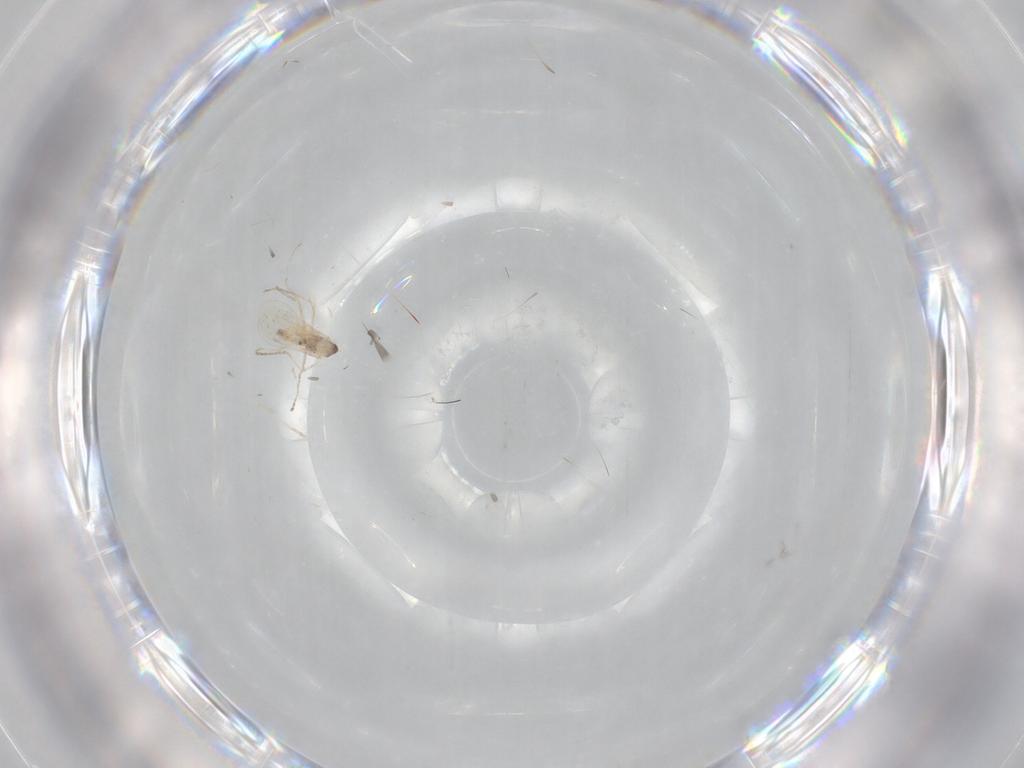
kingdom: Animalia
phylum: Arthropoda
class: Insecta
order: Diptera
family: Cecidomyiidae
